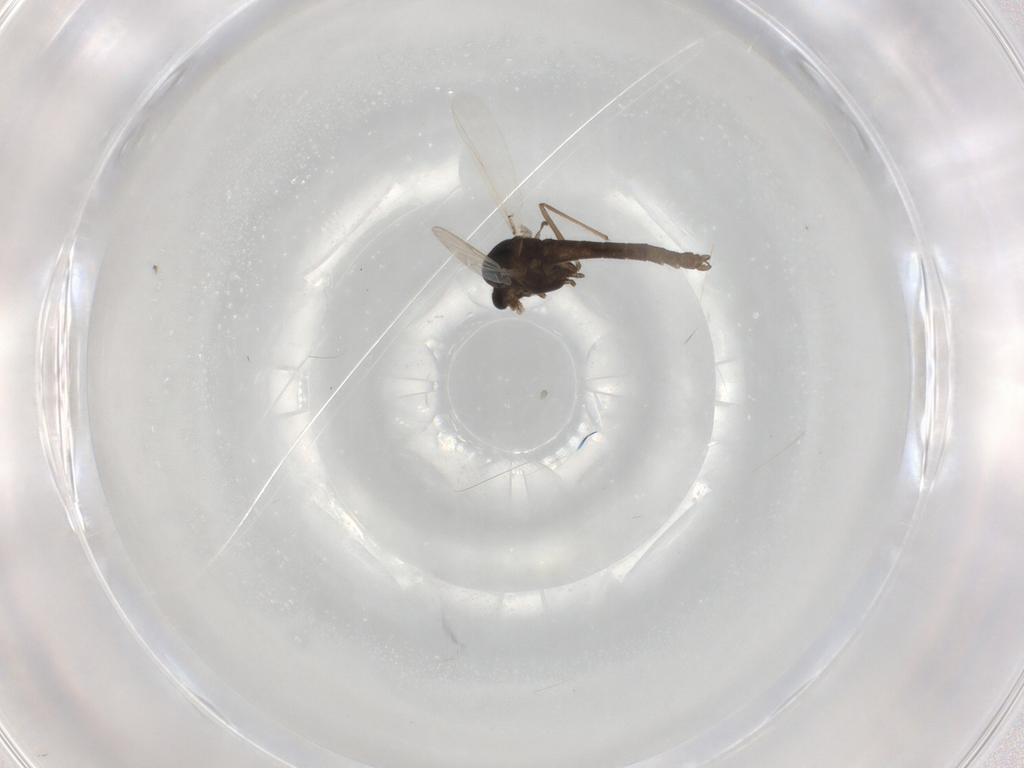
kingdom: Animalia
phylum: Arthropoda
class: Insecta
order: Diptera
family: Chironomidae
